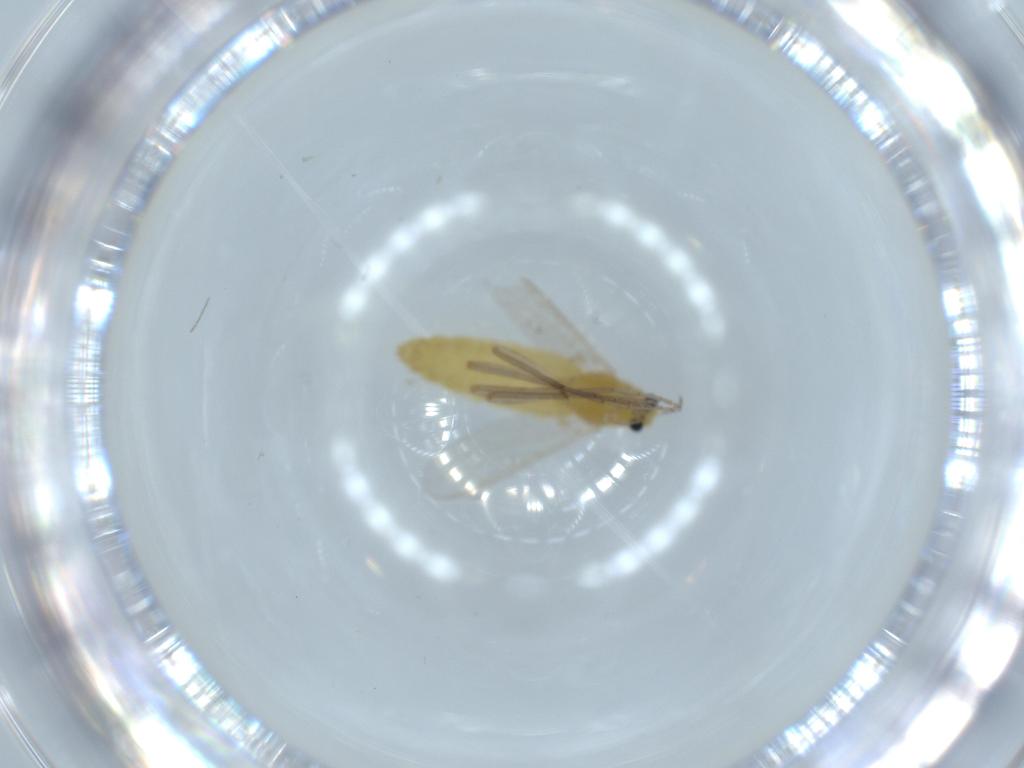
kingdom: Animalia
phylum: Arthropoda
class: Insecta
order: Diptera
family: Chironomidae
